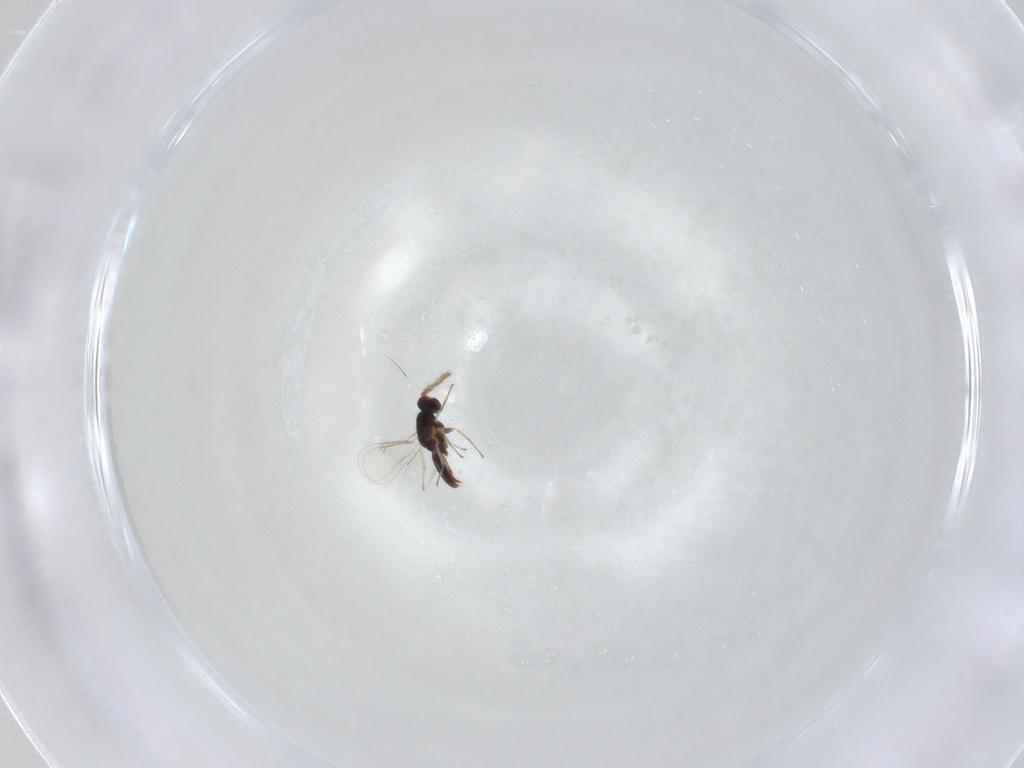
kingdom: Animalia
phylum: Arthropoda
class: Insecta
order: Hymenoptera
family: Eulophidae
